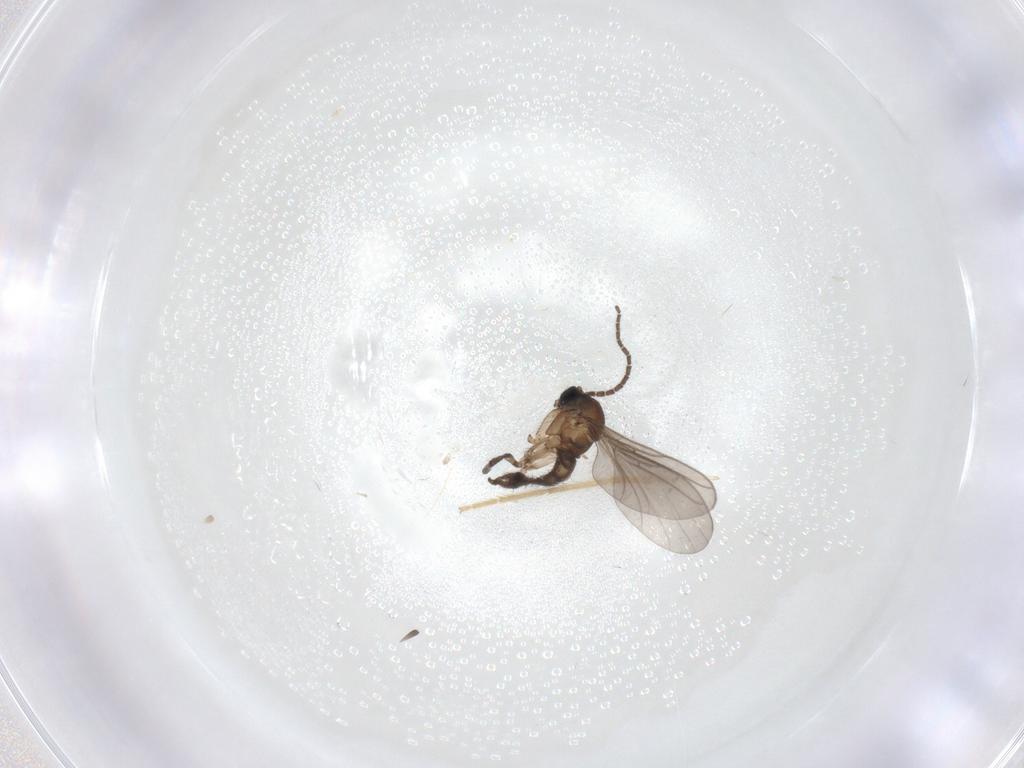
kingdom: Animalia
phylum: Arthropoda
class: Insecta
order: Diptera
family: Sciaridae
